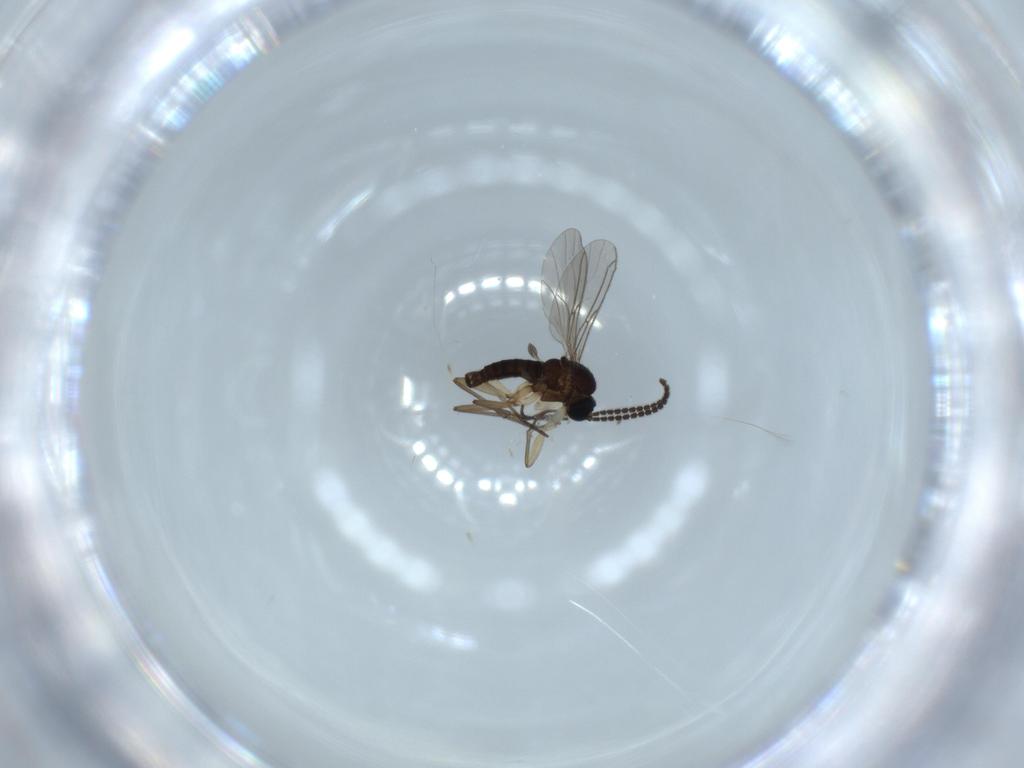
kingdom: Animalia
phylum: Arthropoda
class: Insecta
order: Diptera
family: Sciaridae
